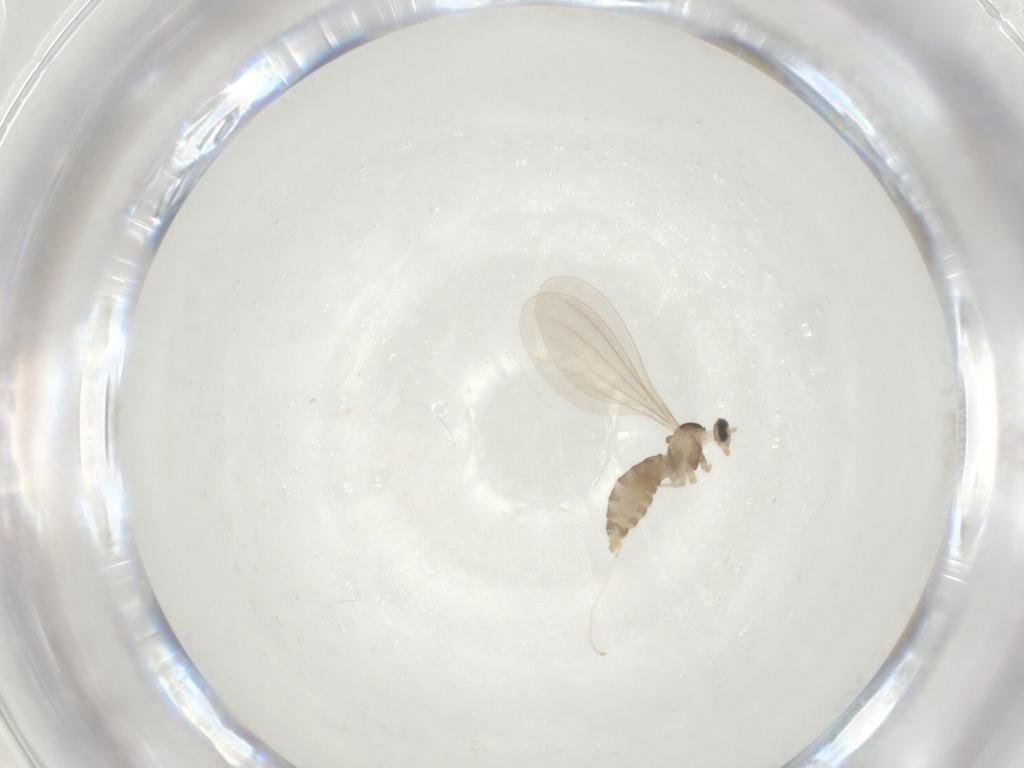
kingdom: Animalia
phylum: Arthropoda
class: Insecta
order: Diptera
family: Cecidomyiidae
